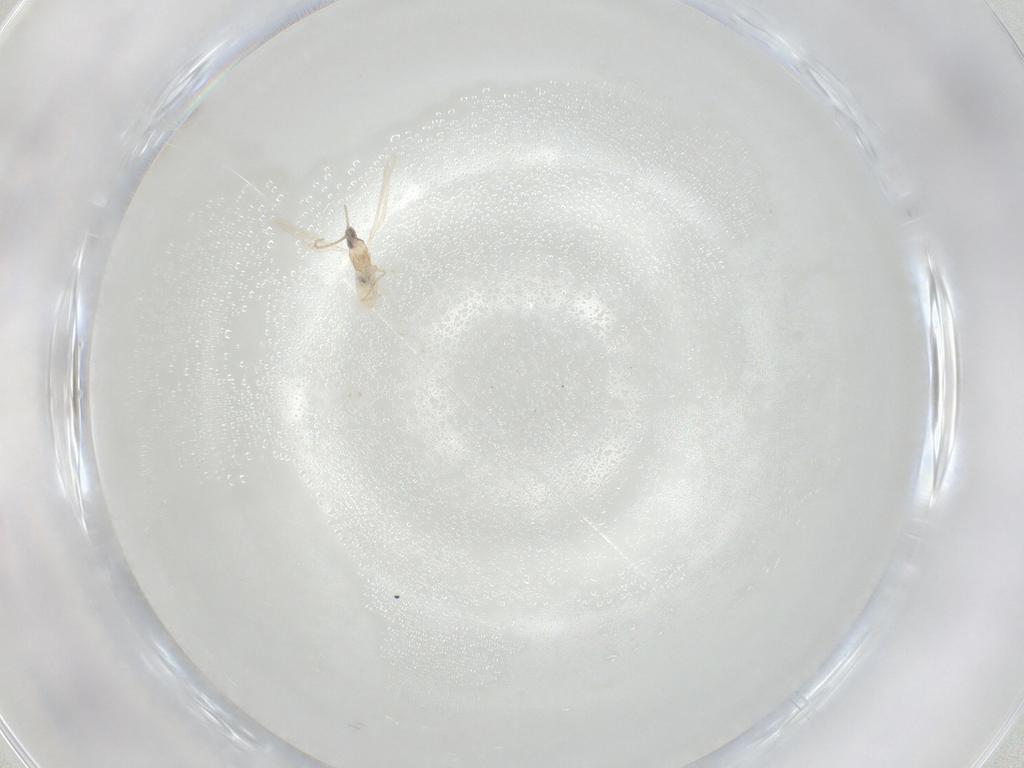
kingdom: Animalia
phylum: Arthropoda
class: Insecta
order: Diptera
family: Cecidomyiidae
